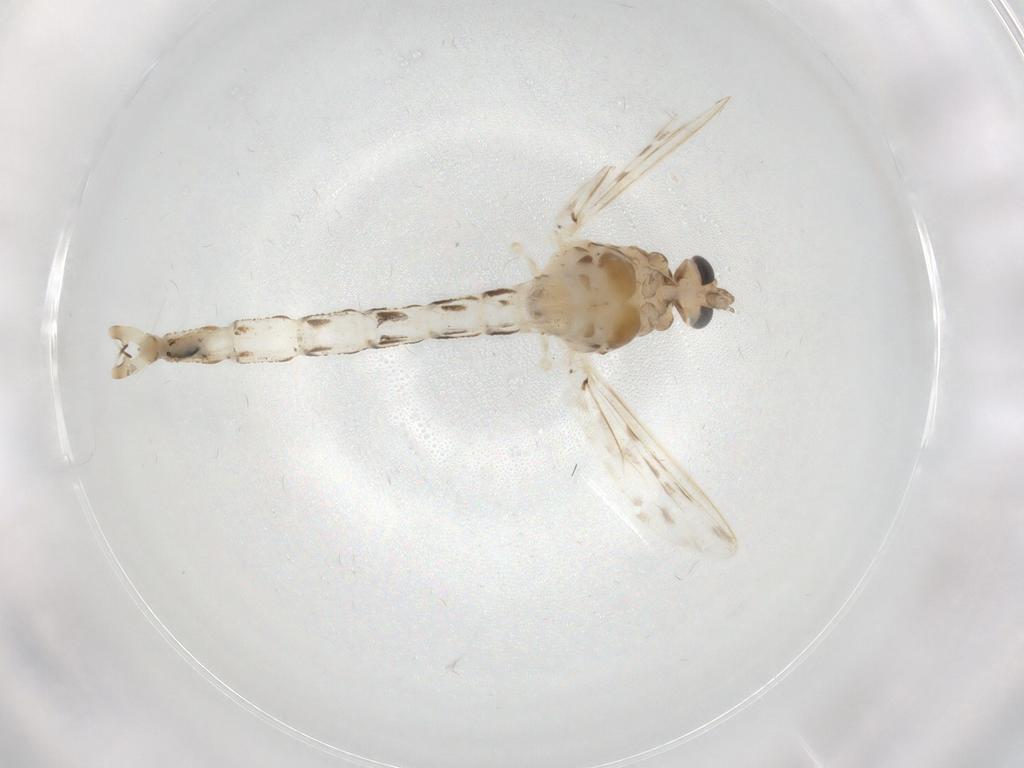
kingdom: Animalia
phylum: Arthropoda
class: Insecta
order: Diptera
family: Chaoboridae
